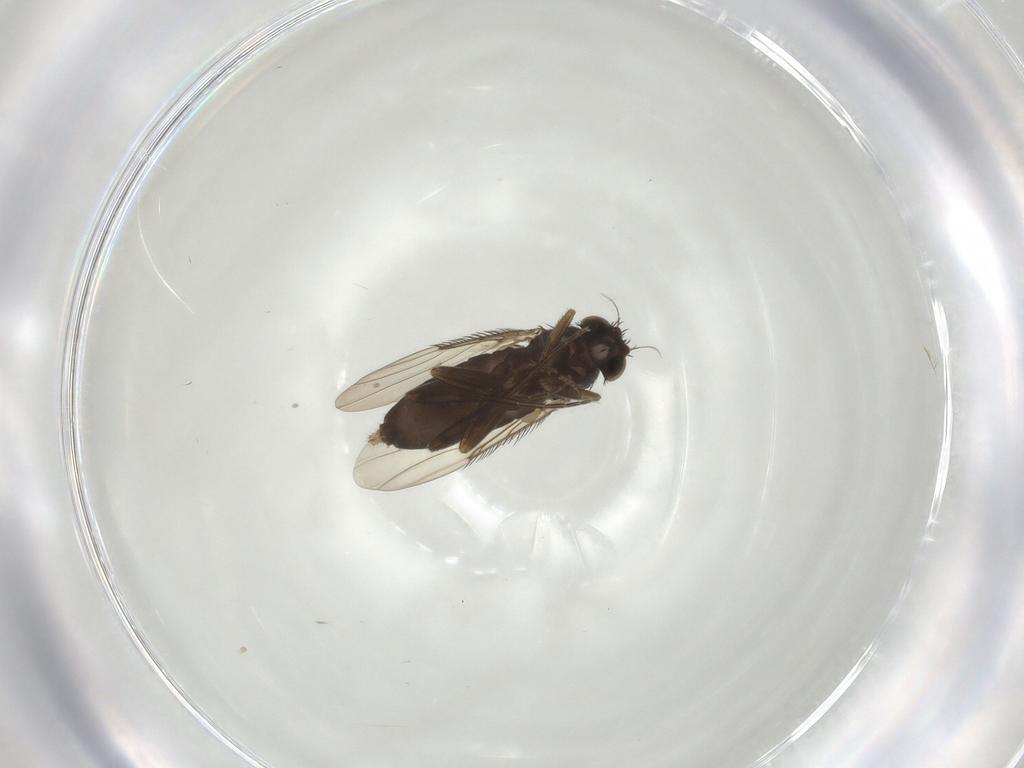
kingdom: Animalia
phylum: Arthropoda
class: Insecta
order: Diptera
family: Phoridae
